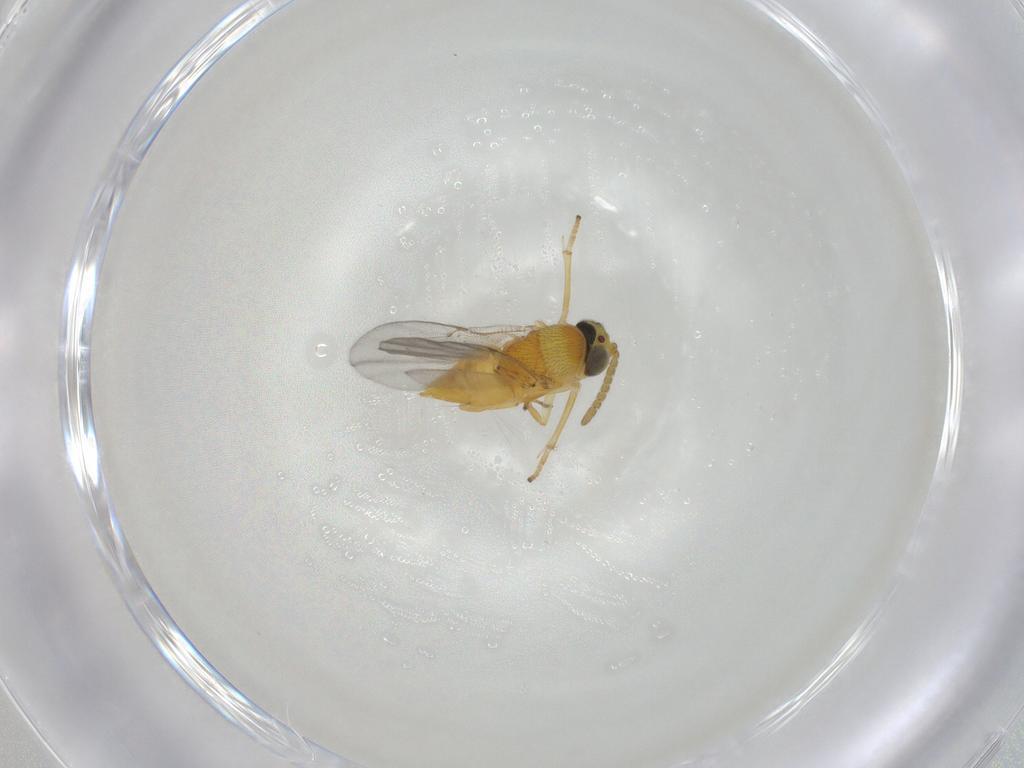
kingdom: Animalia
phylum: Arthropoda
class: Insecta
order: Hymenoptera
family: Encyrtidae
